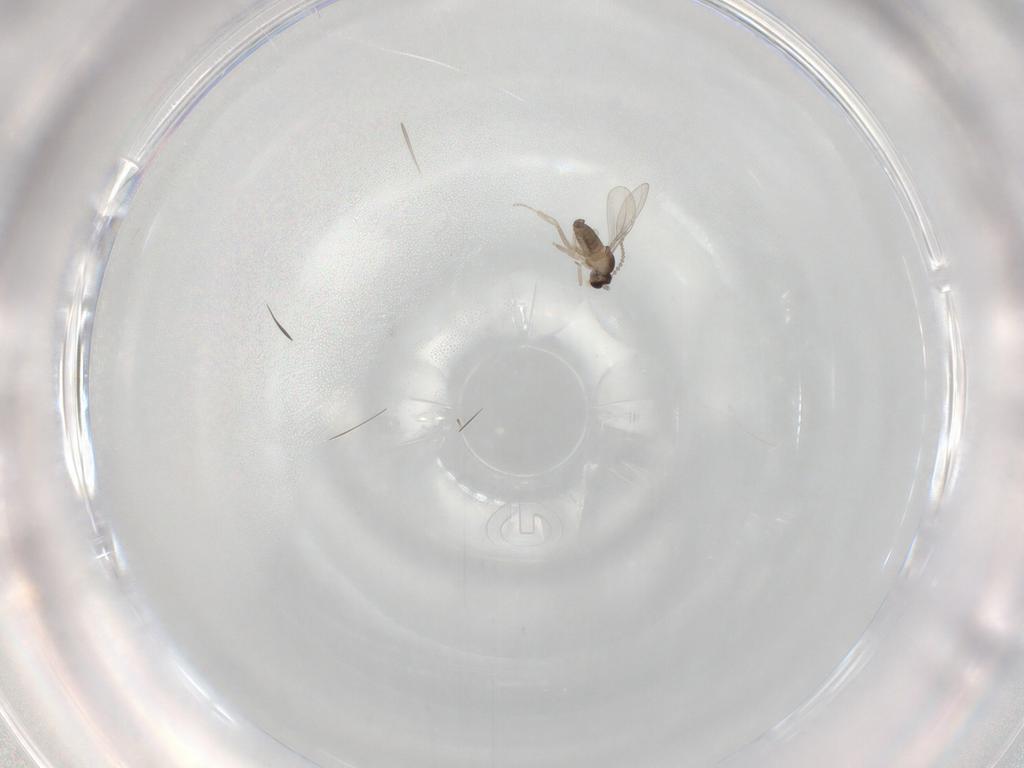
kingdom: Animalia
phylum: Arthropoda
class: Insecta
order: Diptera
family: Cecidomyiidae
